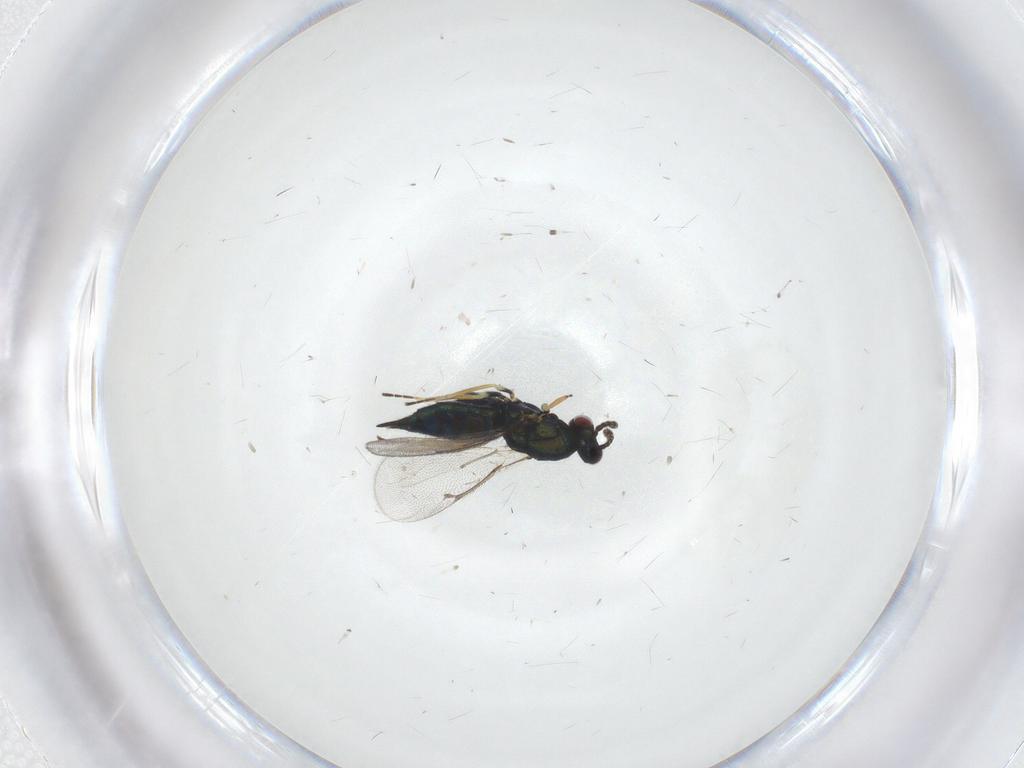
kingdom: Animalia
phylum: Arthropoda
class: Insecta
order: Hymenoptera
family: Eulophidae
